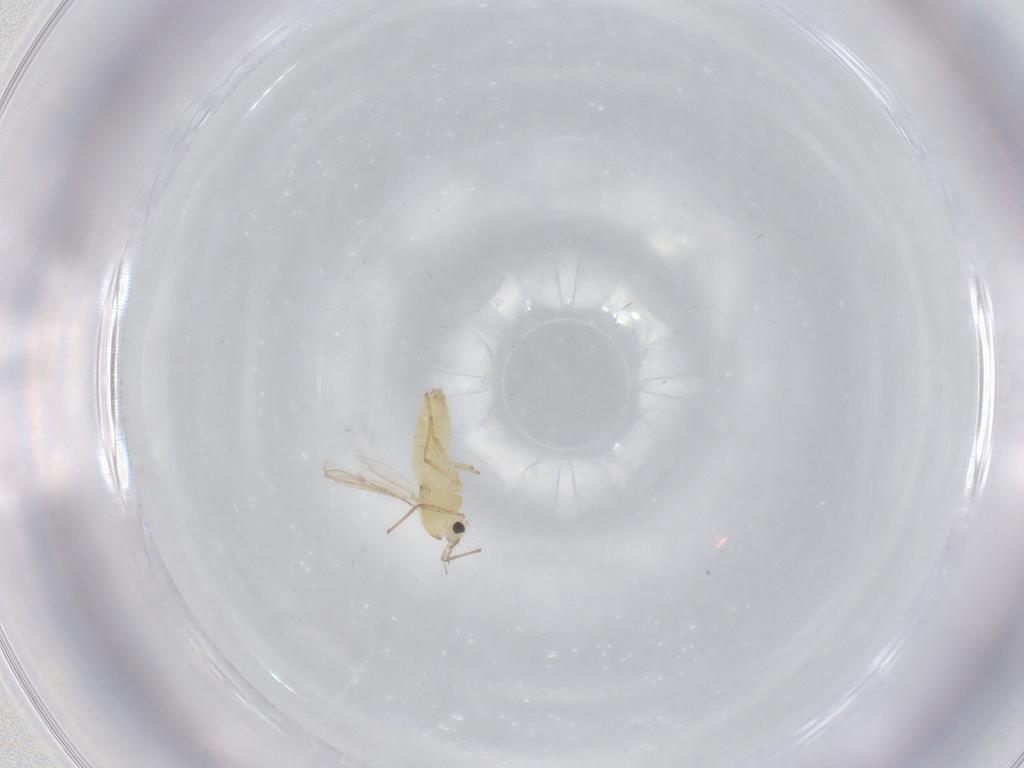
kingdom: Animalia
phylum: Arthropoda
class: Insecta
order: Diptera
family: Chironomidae
